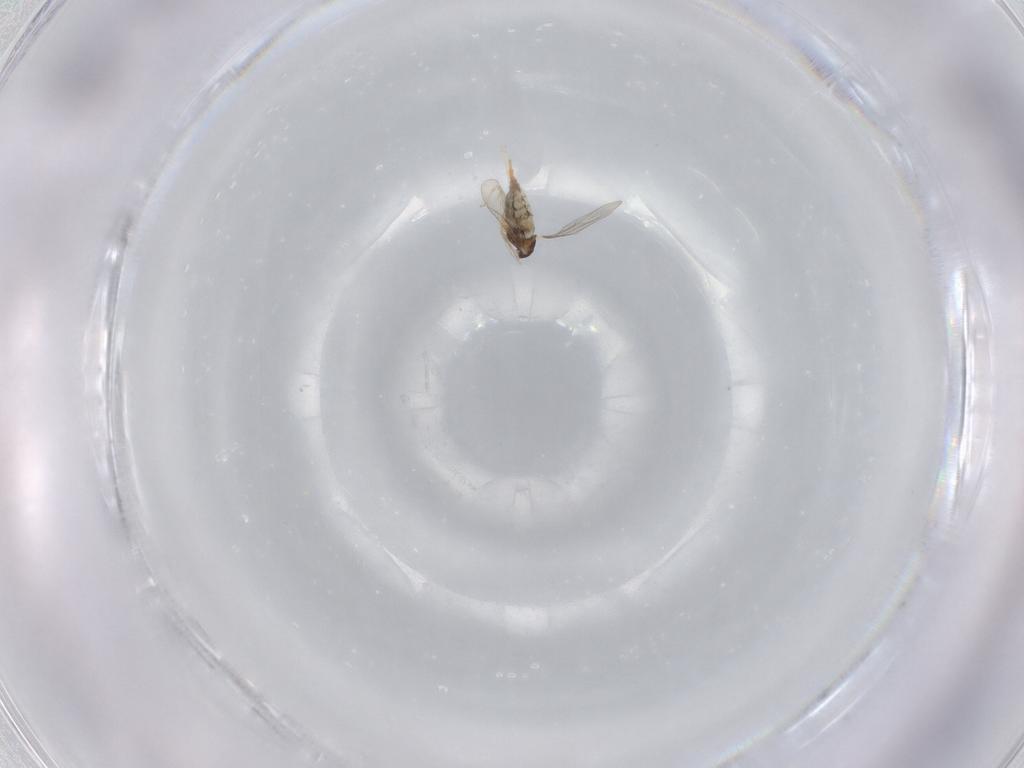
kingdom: Animalia
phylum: Arthropoda
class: Insecta
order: Diptera
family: Cecidomyiidae
